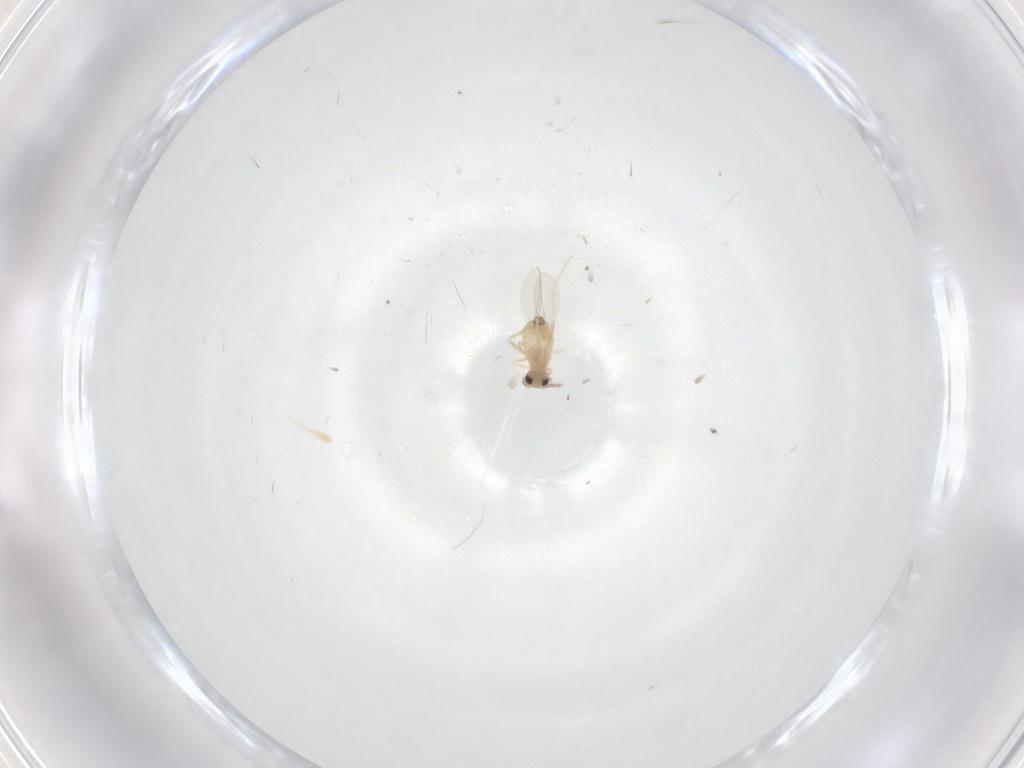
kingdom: Animalia
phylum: Arthropoda
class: Insecta
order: Diptera
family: Cecidomyiidae
